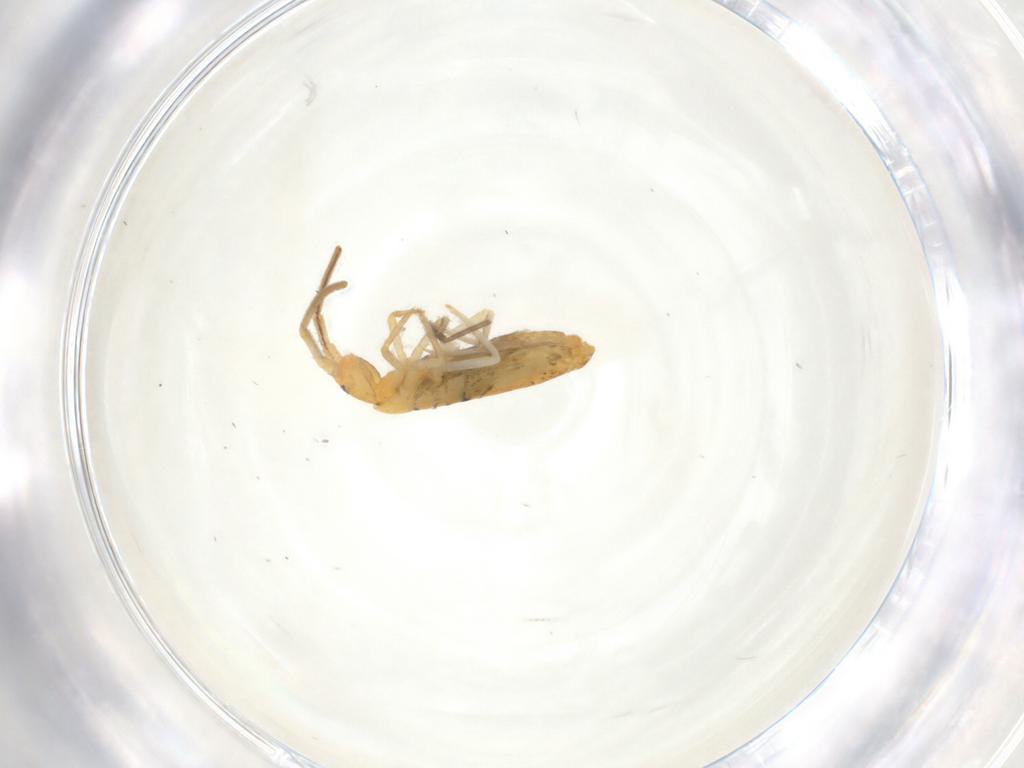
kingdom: Animalia
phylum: Arthropoda
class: Collembola
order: Entomobryomorpha
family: Entomobryidae
